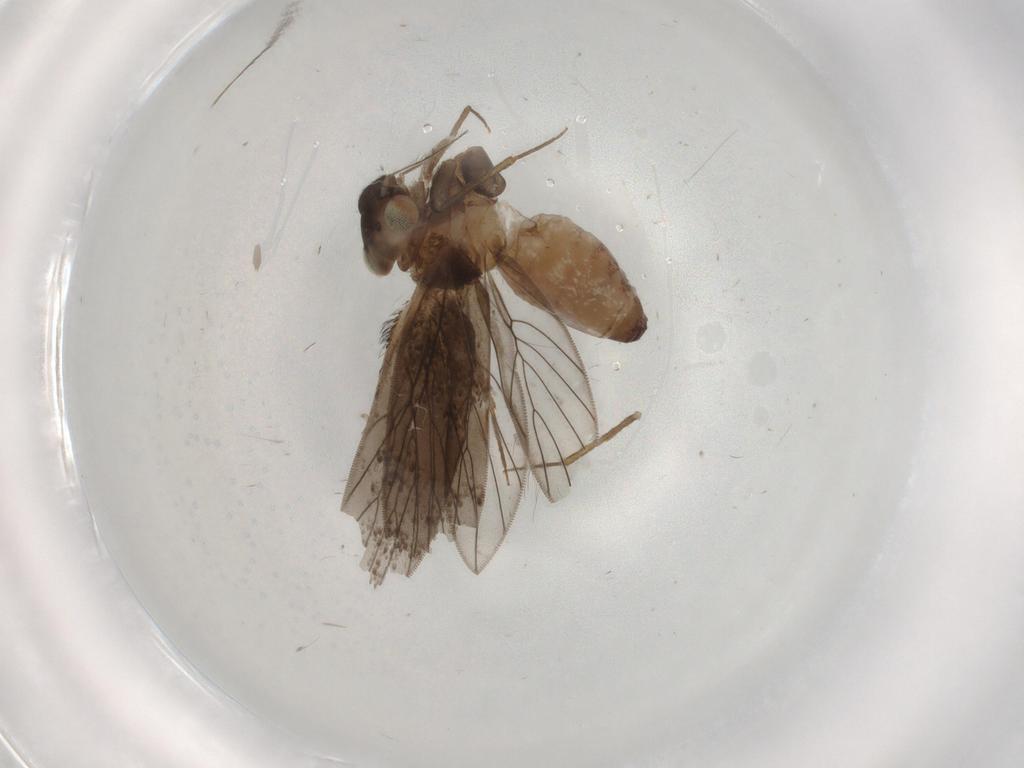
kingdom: Animalia
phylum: Arthropoda
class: Insecta
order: Psocodea
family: Lepidopsocidae
